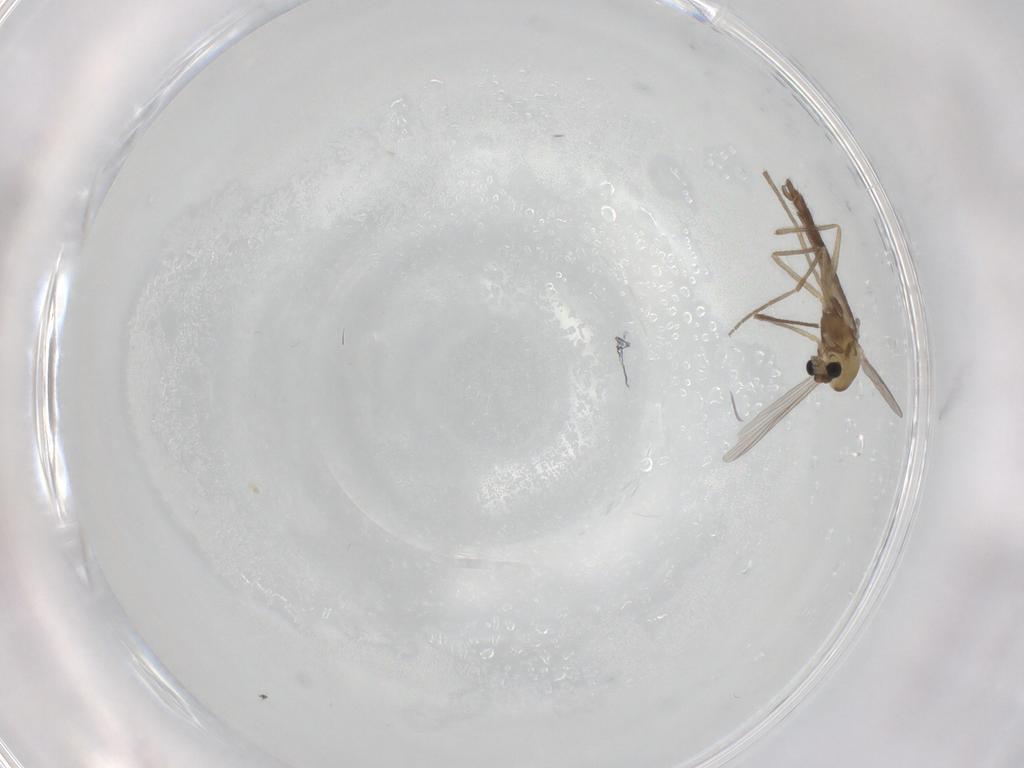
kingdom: Animalia
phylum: Arthropoda
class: Insecta
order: Diptera
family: Chironomidae
